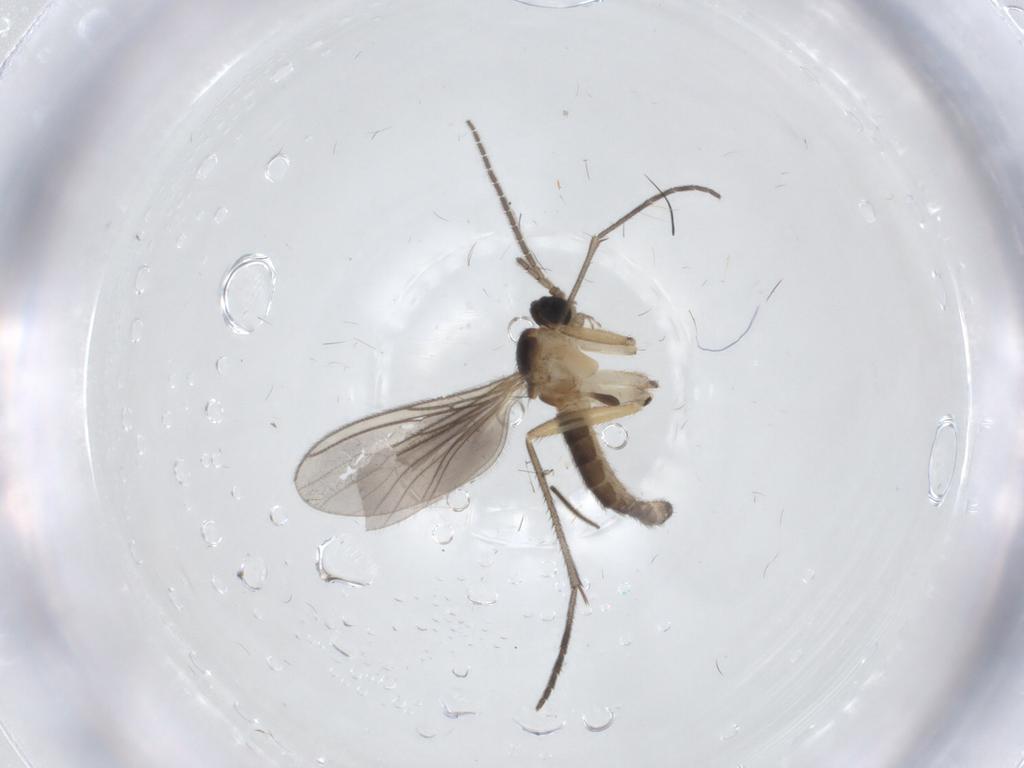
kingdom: Animalia
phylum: Arthropoda
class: Insecta
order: Diptera
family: Sciaridae
